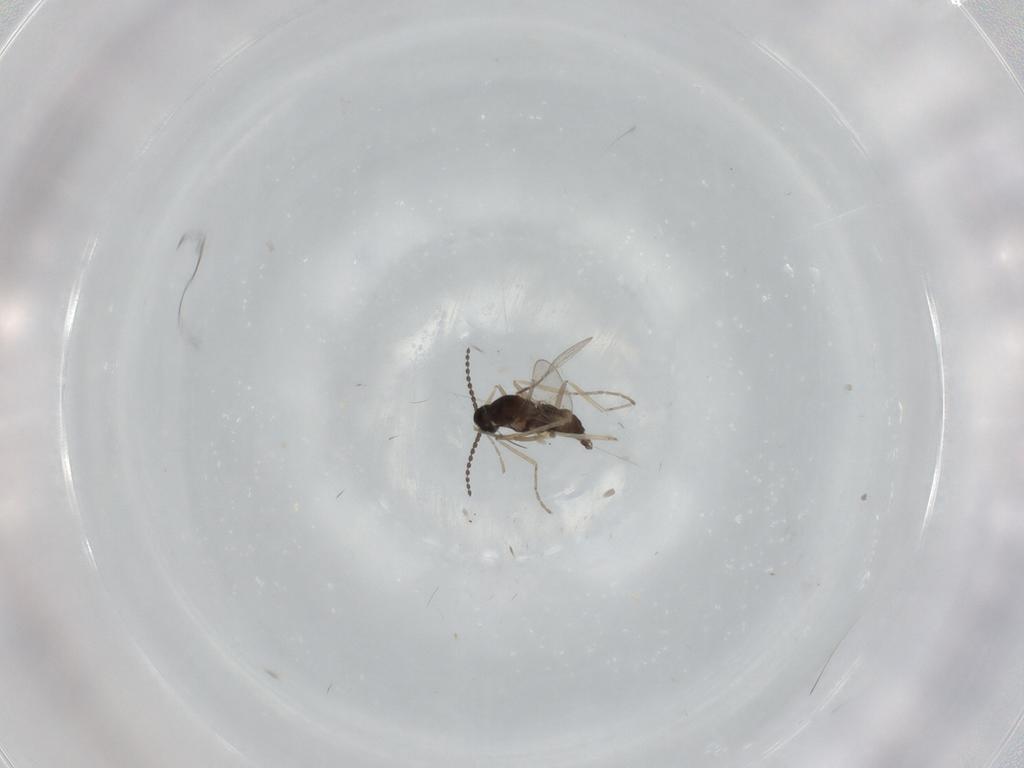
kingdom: Animalia
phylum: Arthropoda
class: Insecta
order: Diptera
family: Cecidomyiidae
